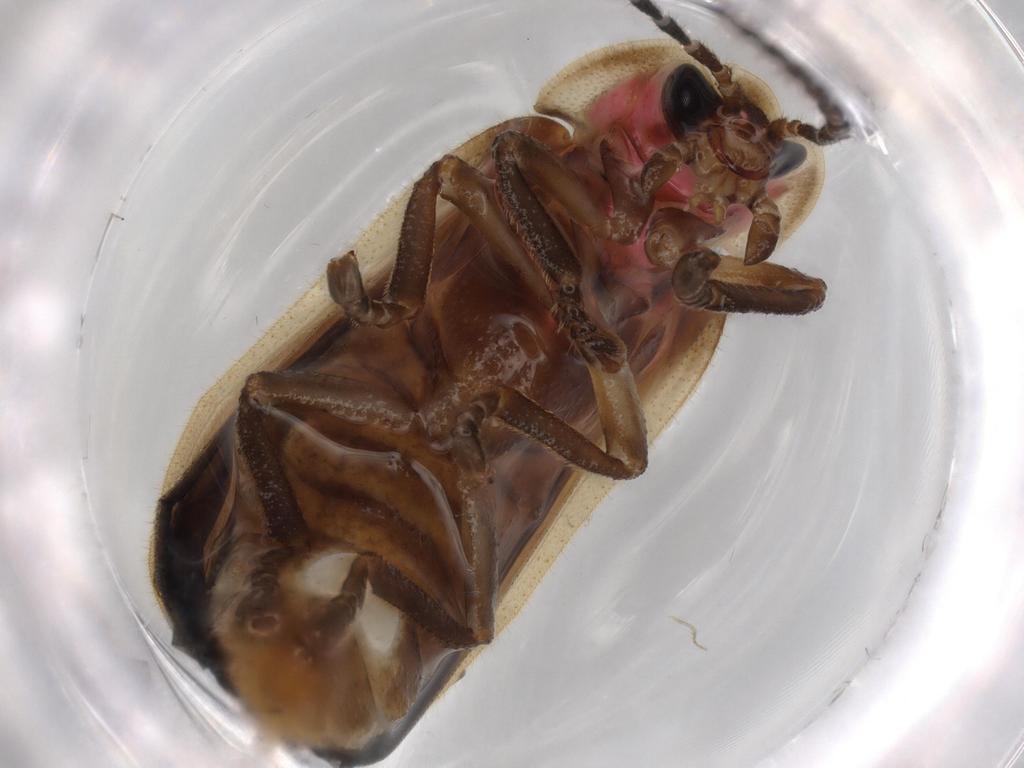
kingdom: Animalia
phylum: Arthropoda
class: Insecta
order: Coleoptera
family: Lampyridae
